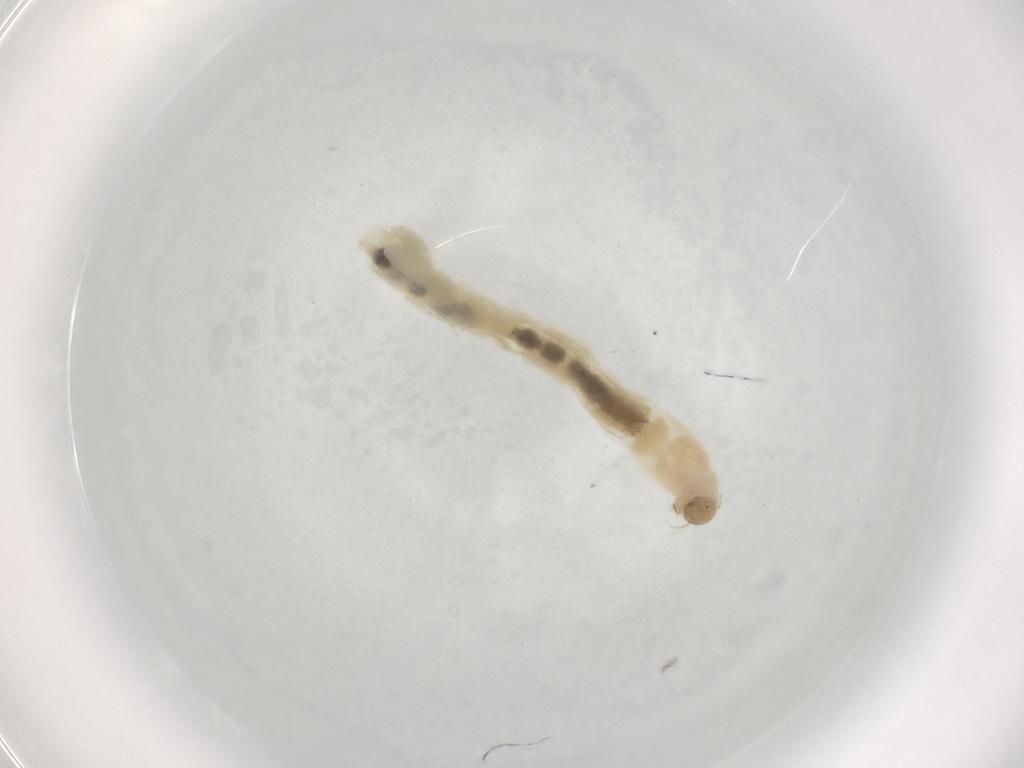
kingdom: Animalia
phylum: Arthropoda
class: Insecta
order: Diptera
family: Chironomidae
